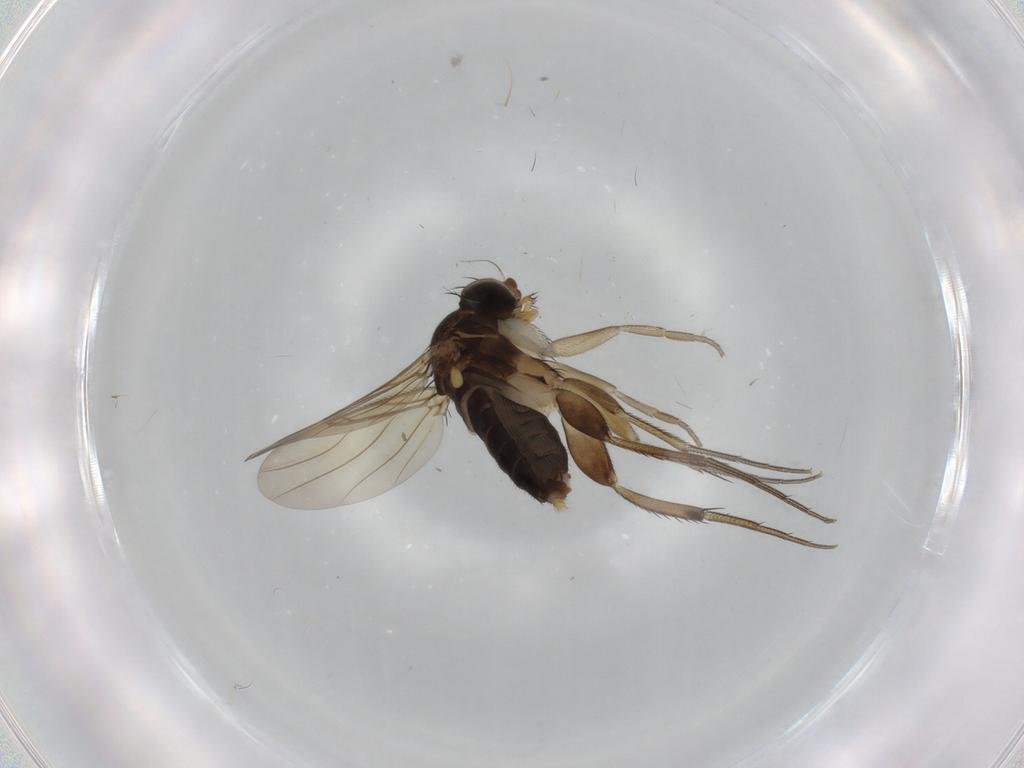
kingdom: Animalia
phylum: Arthropoda
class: Insecta
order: Diptera
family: Phoridae
